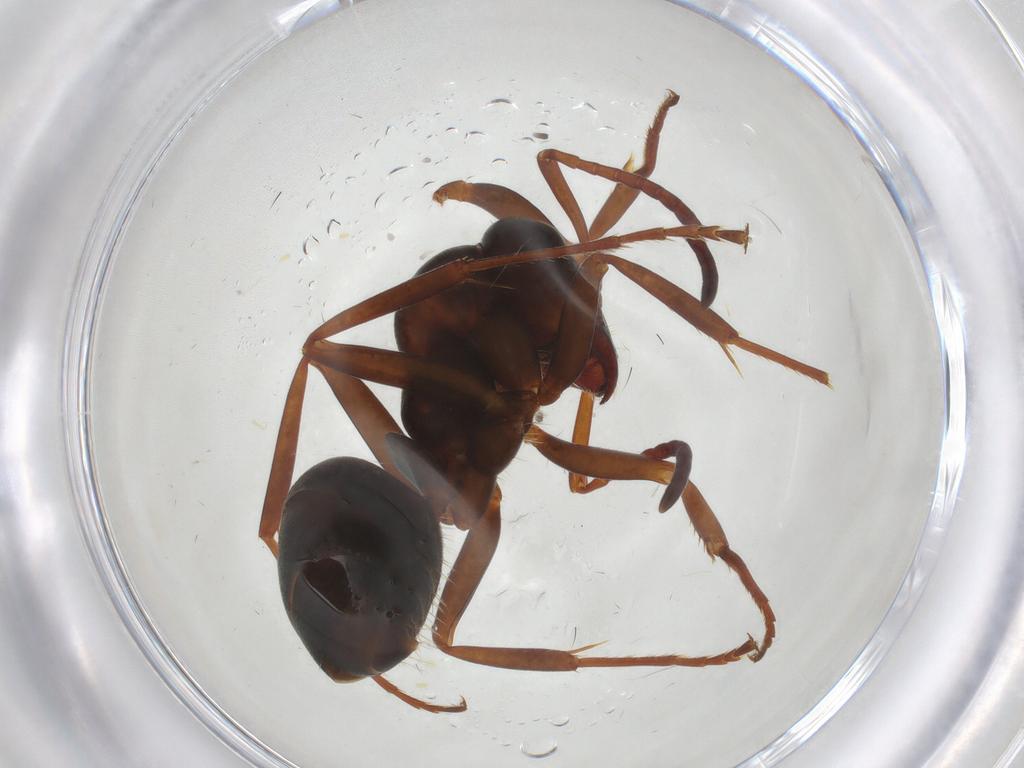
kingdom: Animalia
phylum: Arthropoda
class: Insecta
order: Hymenoptera
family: Formicidae
